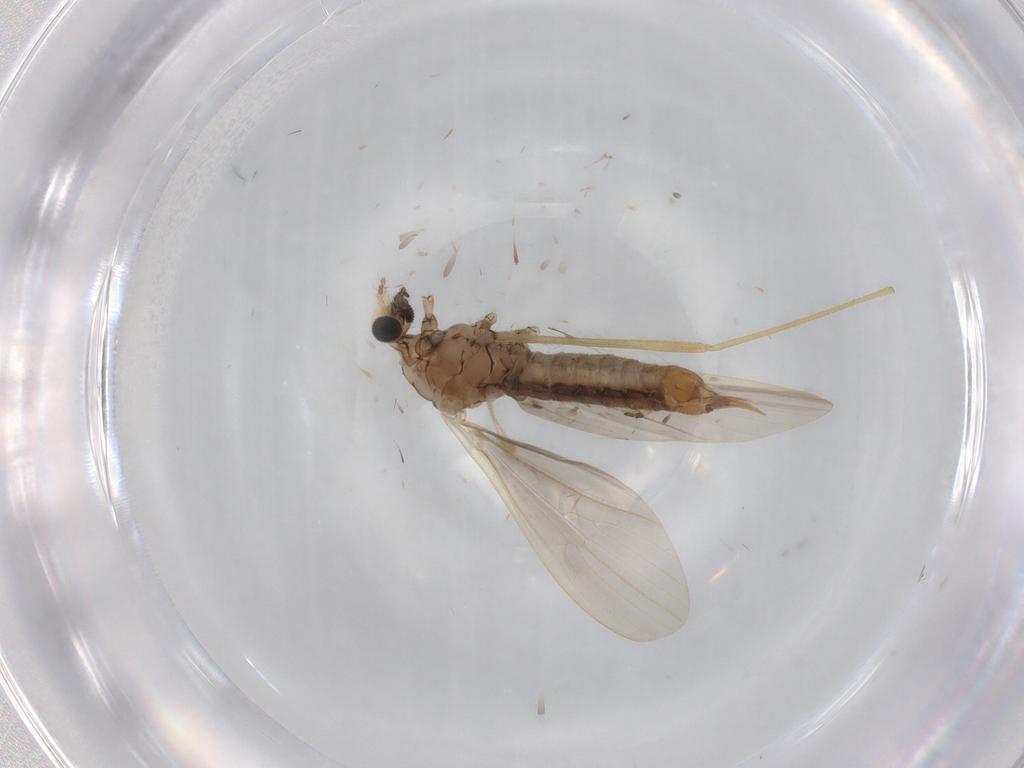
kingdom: Animalia
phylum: Arthropoda
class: Insecta
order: Diptera
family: Limoniidae
